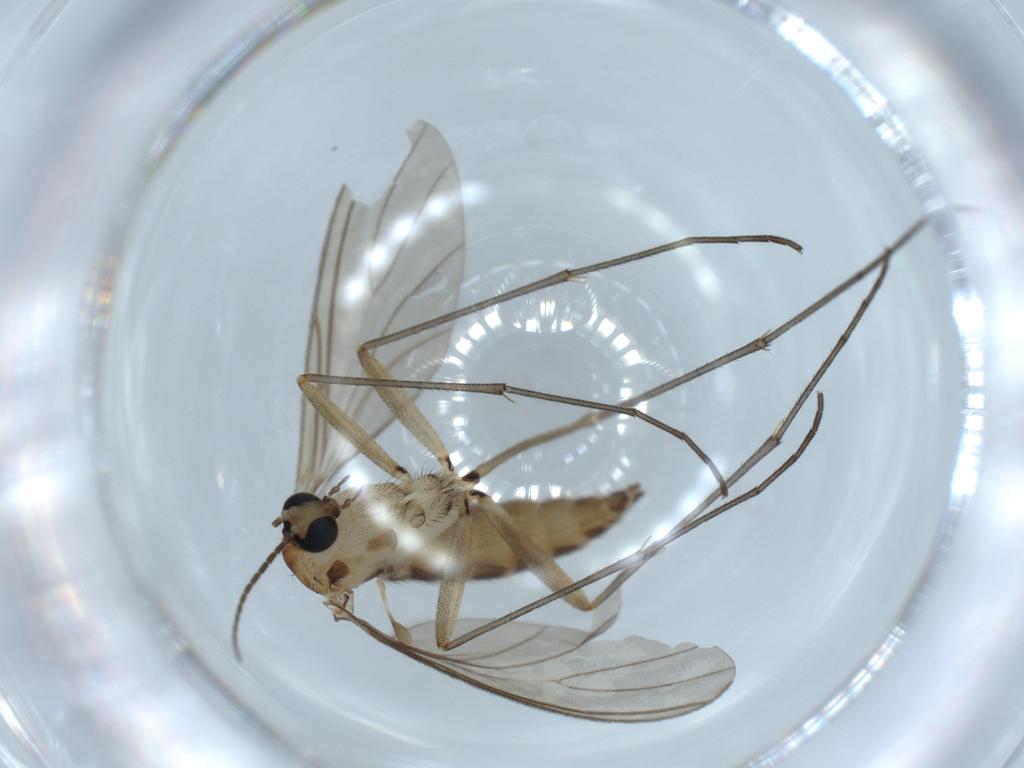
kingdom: Animalia
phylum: Arthropoda
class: Insecta
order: Diptera
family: Sciaridae
